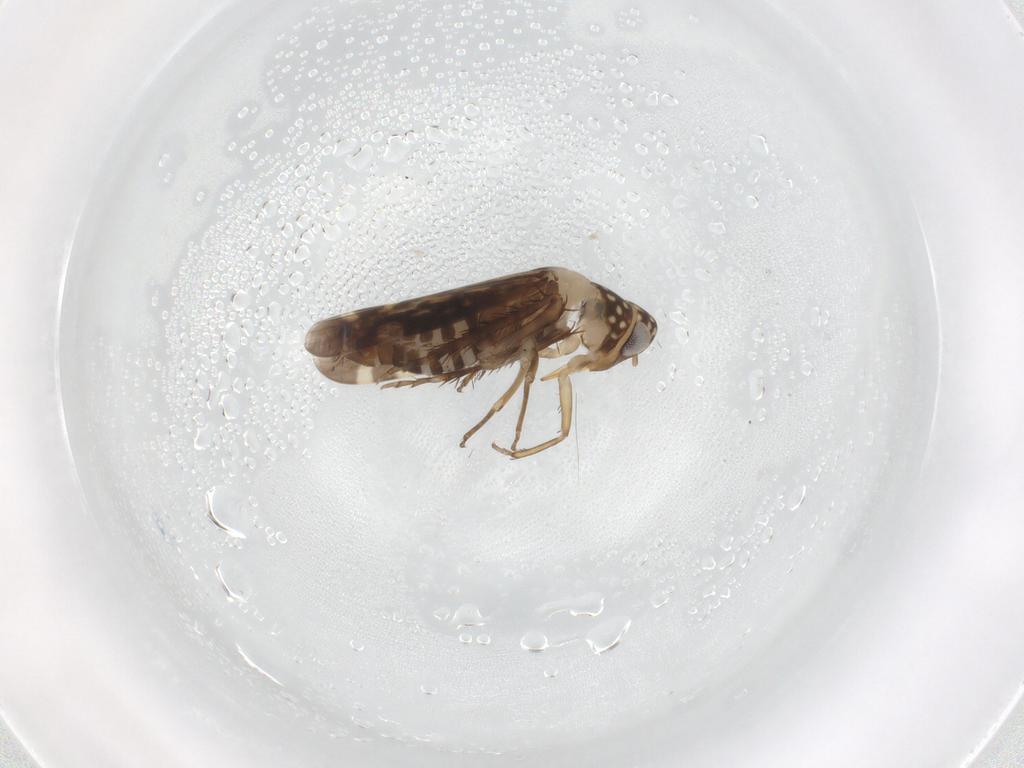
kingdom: Animalia
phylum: Arthropoda
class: Insecta
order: Hemiptera
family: Cicadellidae
